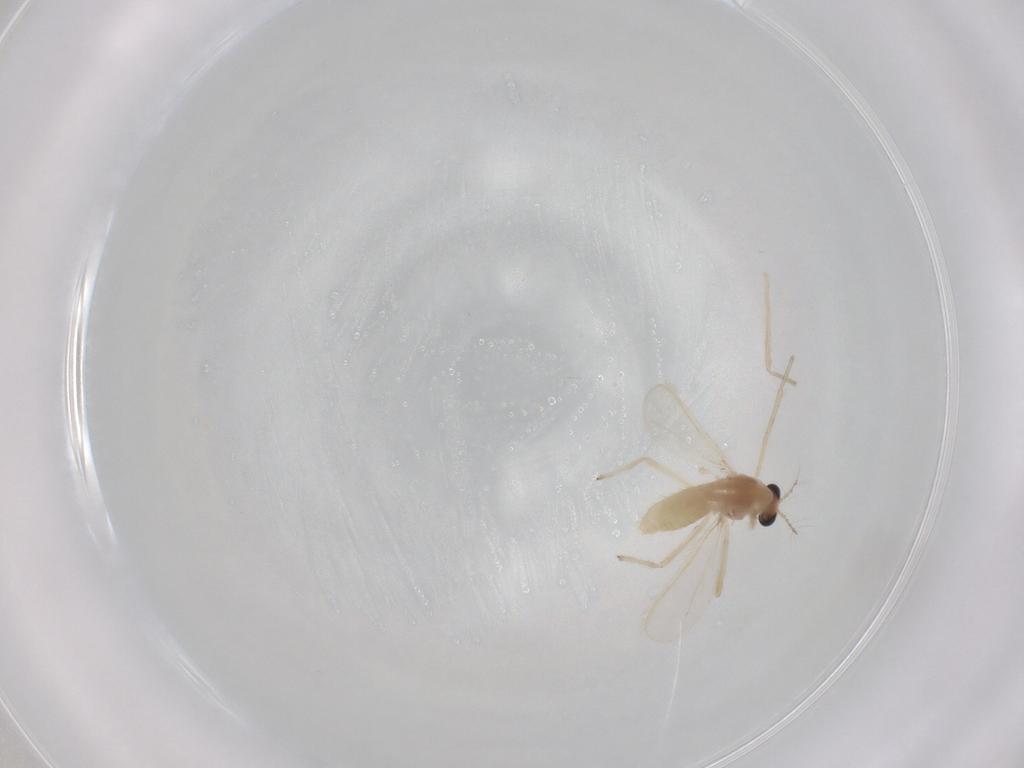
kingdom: Animalia
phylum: Arthropoda
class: Insecta
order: Diptera
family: Chironomidae
